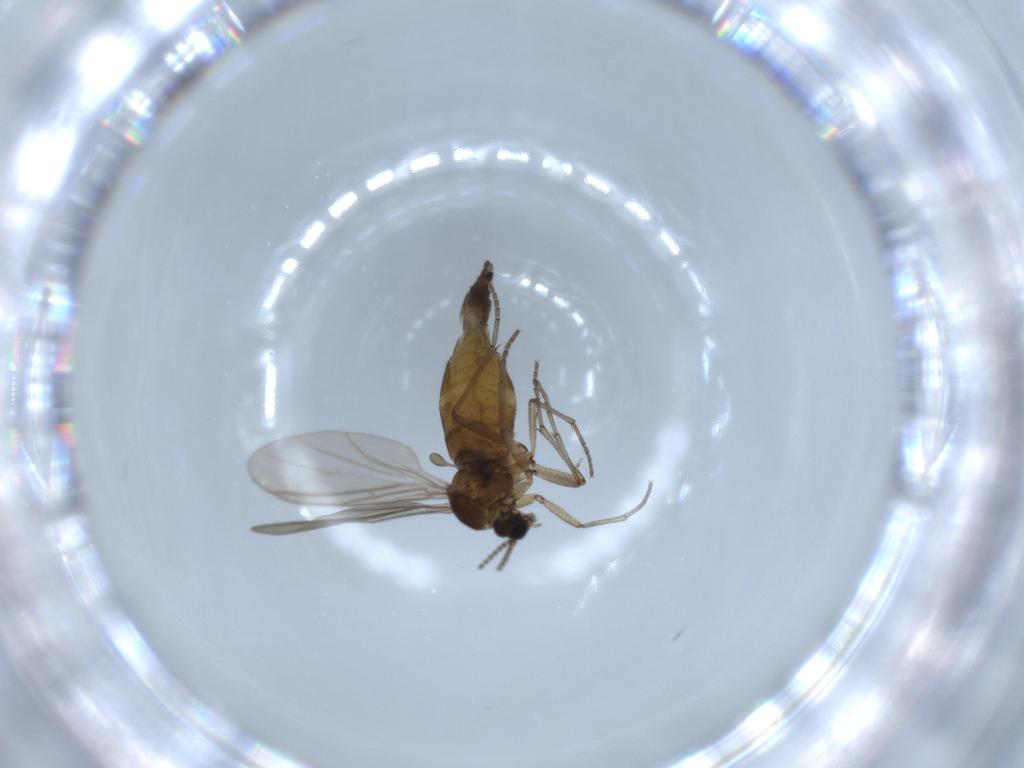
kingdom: Animalia
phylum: Arthropoda
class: Insecta
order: Diptera
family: Sciaridae
